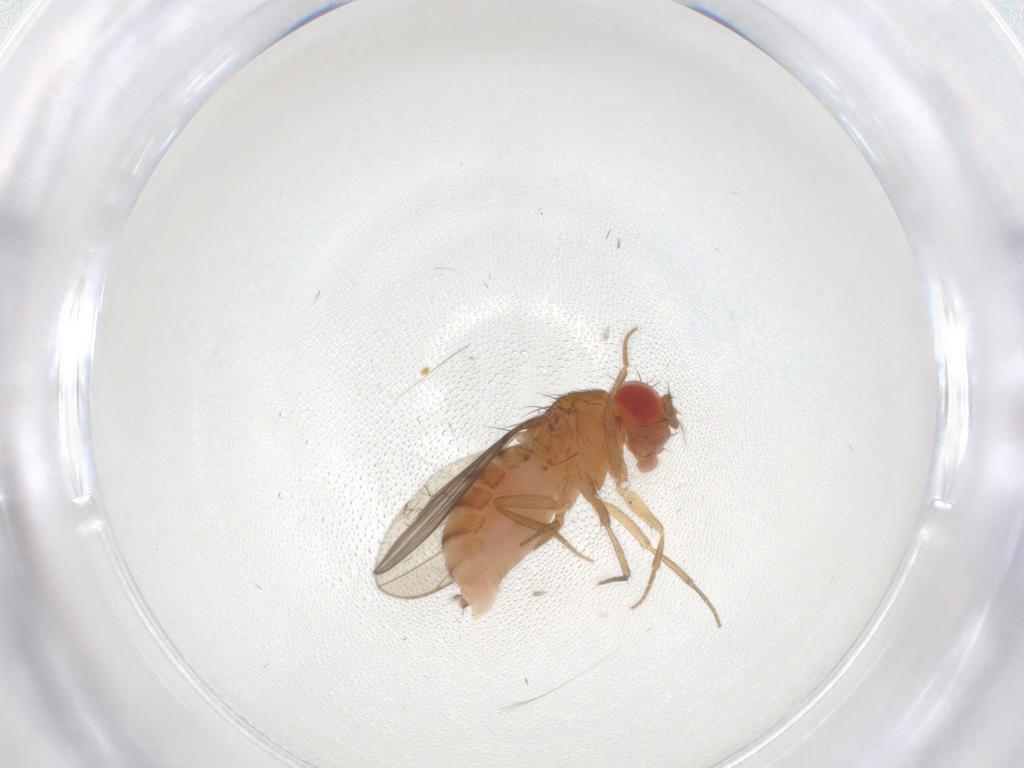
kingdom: Animalia
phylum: Arthropoda
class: Insecta
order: Diptera
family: Drosophilidae
